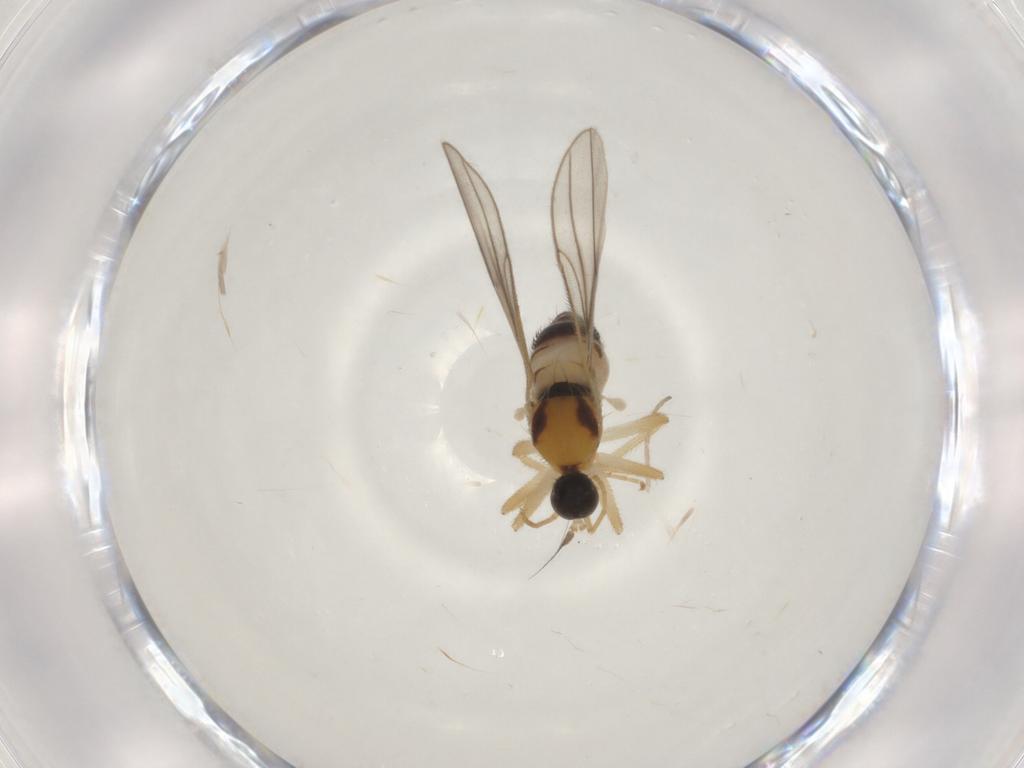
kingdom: Animalia
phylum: Arthropoda
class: Insecta
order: Diptera
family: Hybotidae
